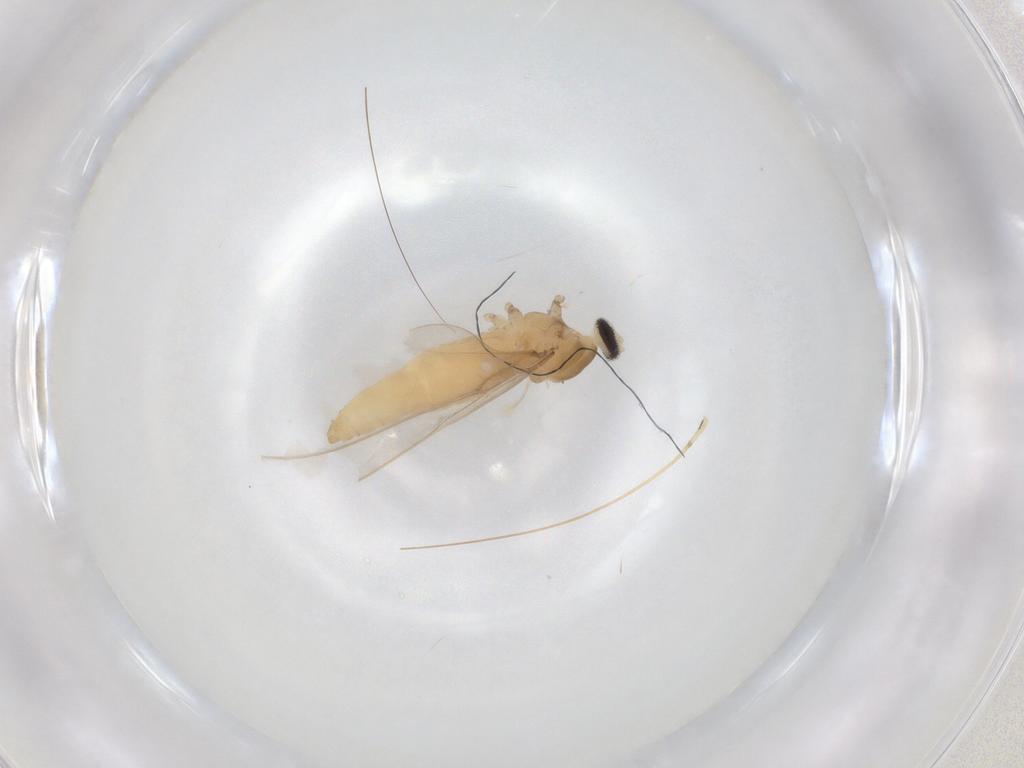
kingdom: Animalia
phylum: Arthropoda
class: Insecta
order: Diptera
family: Cecidomyiidae
